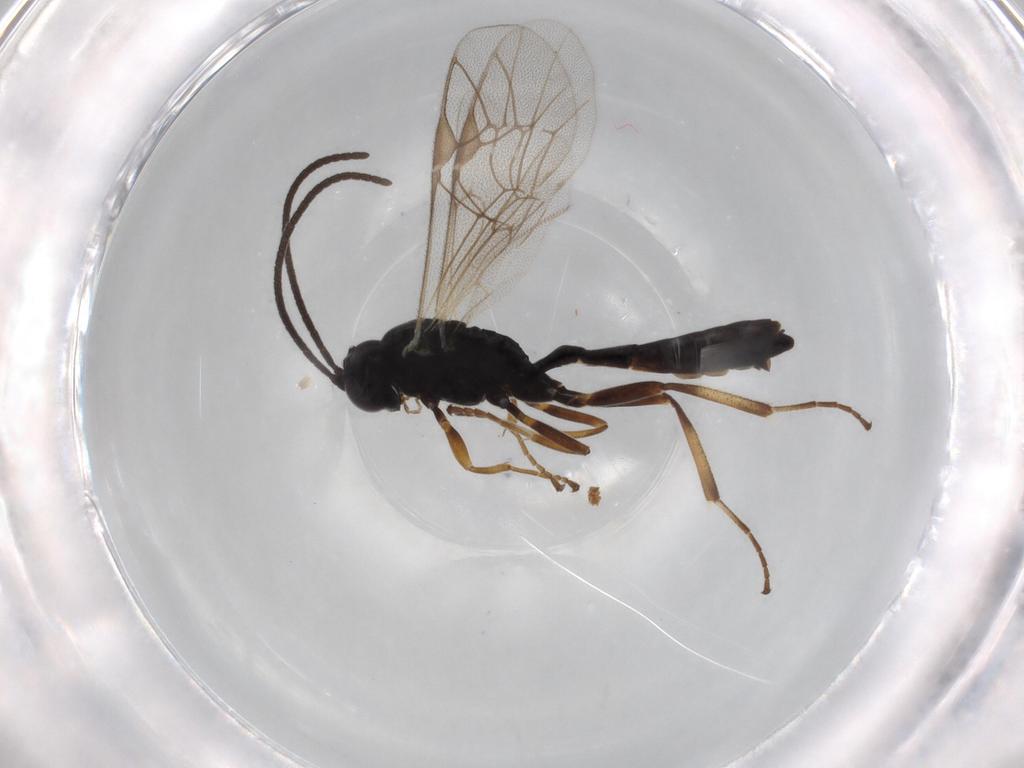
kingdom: Animalia
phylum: Arthropoda
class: Insecta
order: Hymenoptera
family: Ichneumonidae
